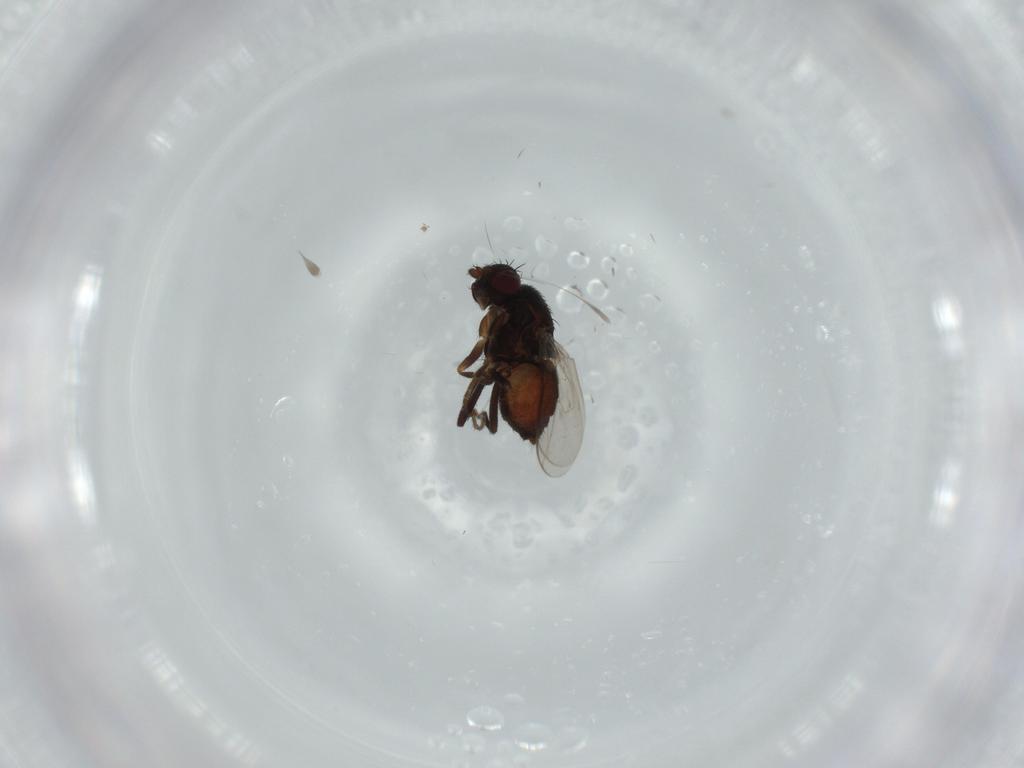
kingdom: Animalia
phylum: Arthropoda
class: Insecta
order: Diptera
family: Sphaeroceridae
